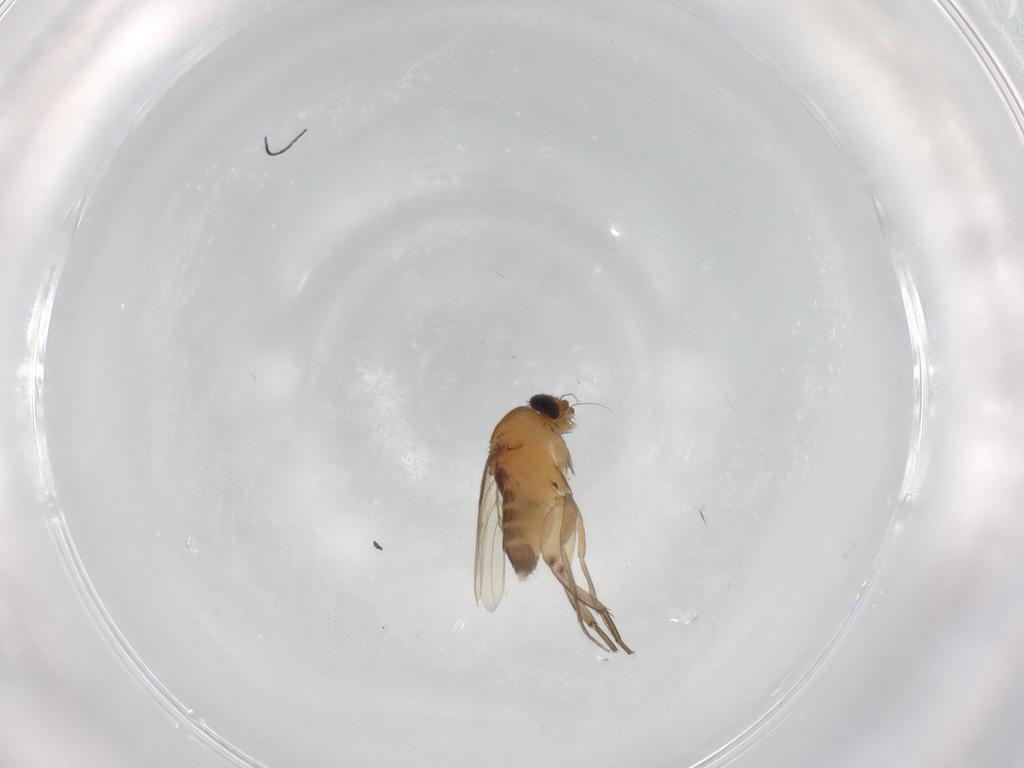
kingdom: Animalia
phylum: Arthropoda
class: Insecta
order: Diptera
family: Phoridae
